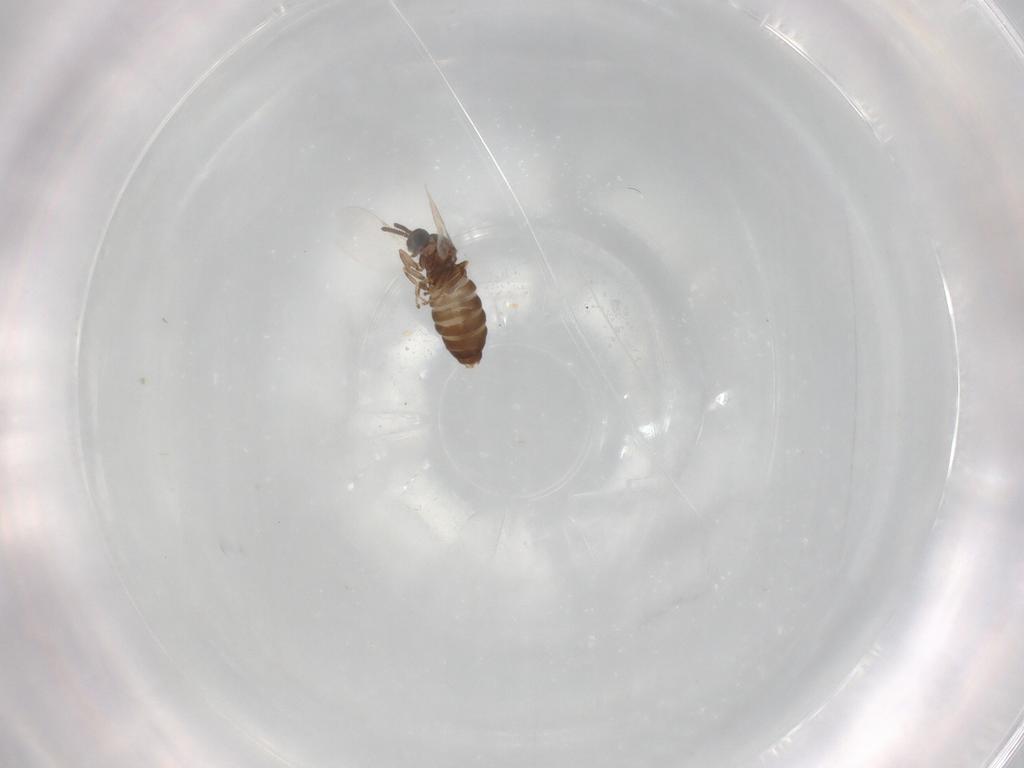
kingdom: Animalia
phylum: Arthropoda
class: Insecta
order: Diptera
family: Scatopsidae
